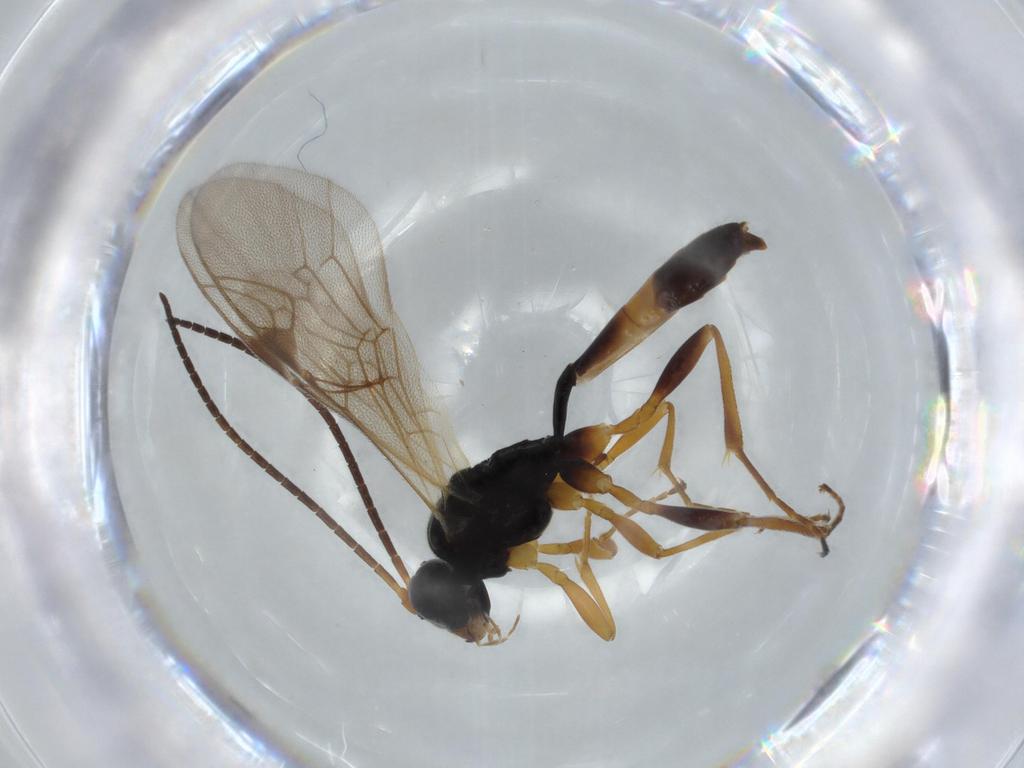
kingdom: Animalia
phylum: Arthropoda
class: Insecta
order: Hymenoptera
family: Ichneumonidae
